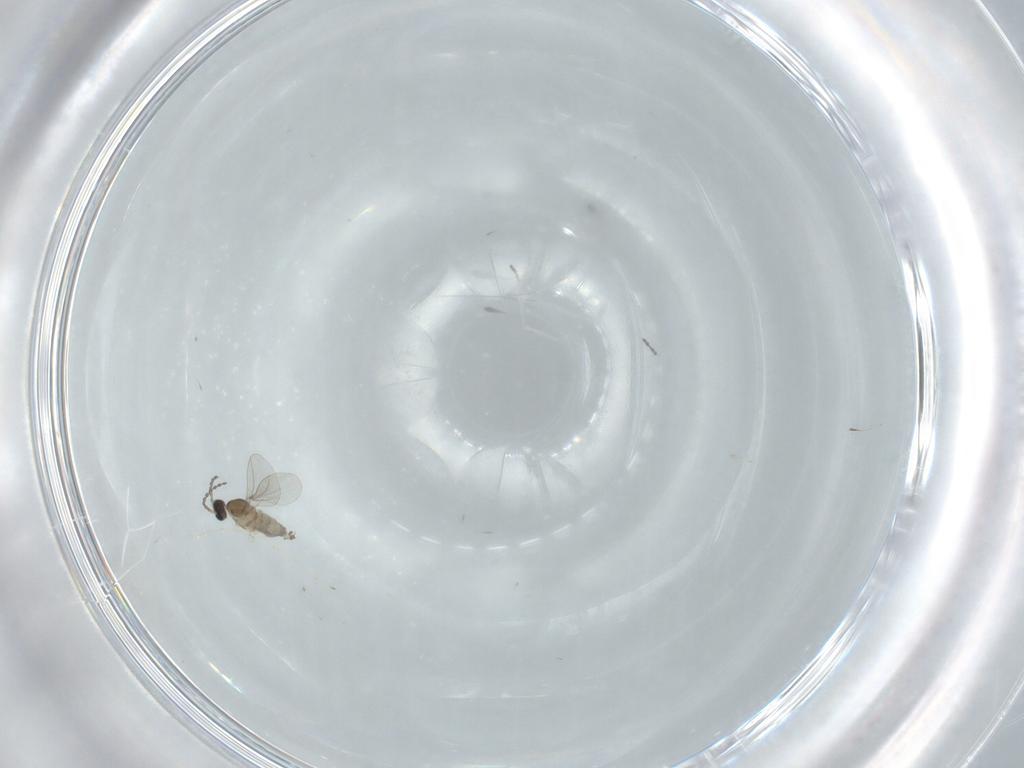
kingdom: Animalia
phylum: Arthropoda
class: Insecta
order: Diptera
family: Cecidomyiidae
